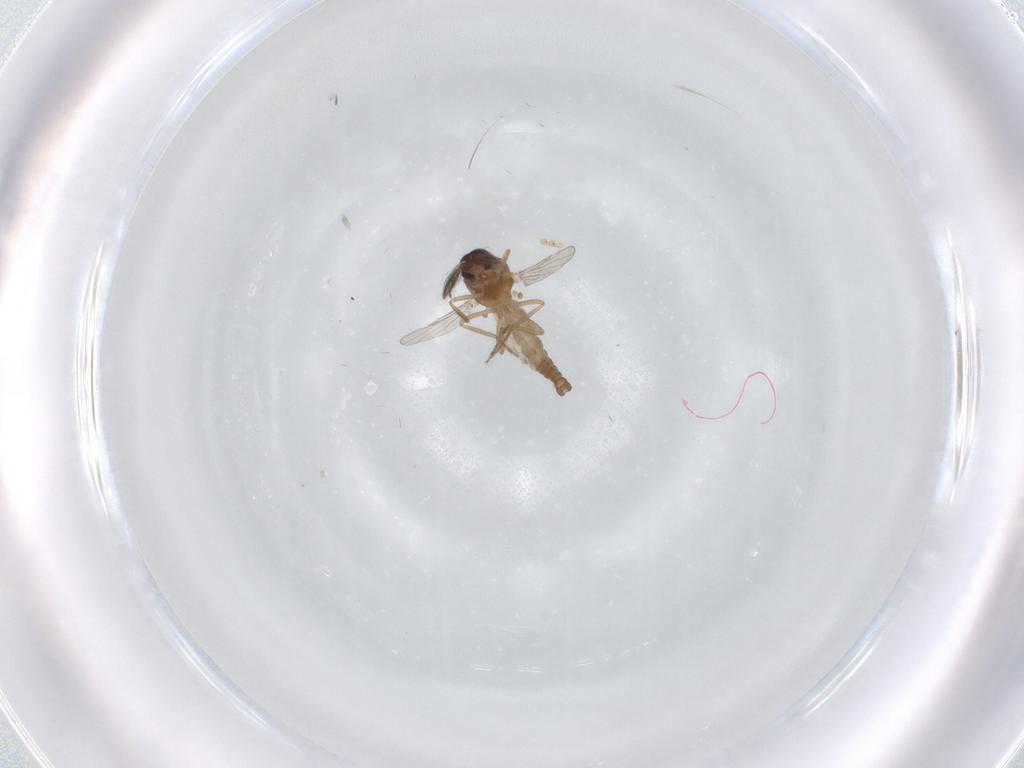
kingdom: Animalia
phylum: Arthropoda
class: Insecta
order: Diptera
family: Ceratopogonidae
